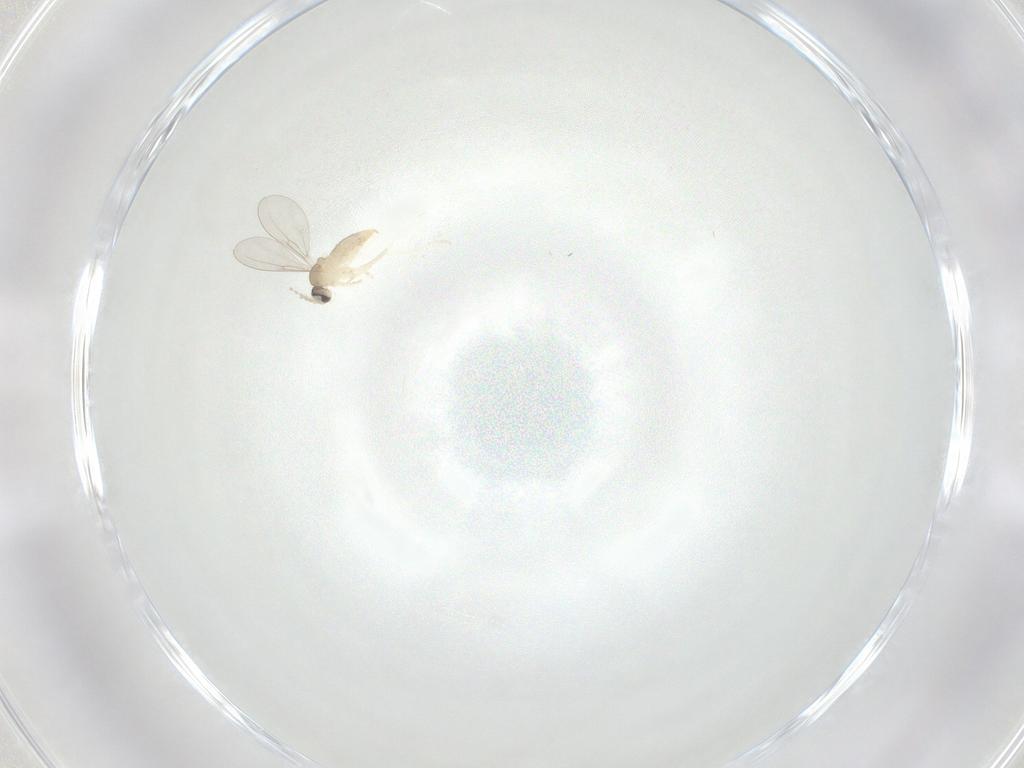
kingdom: Animalia
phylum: Arthropoda
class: Insecta
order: Diptera
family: Cecidomyiidae
